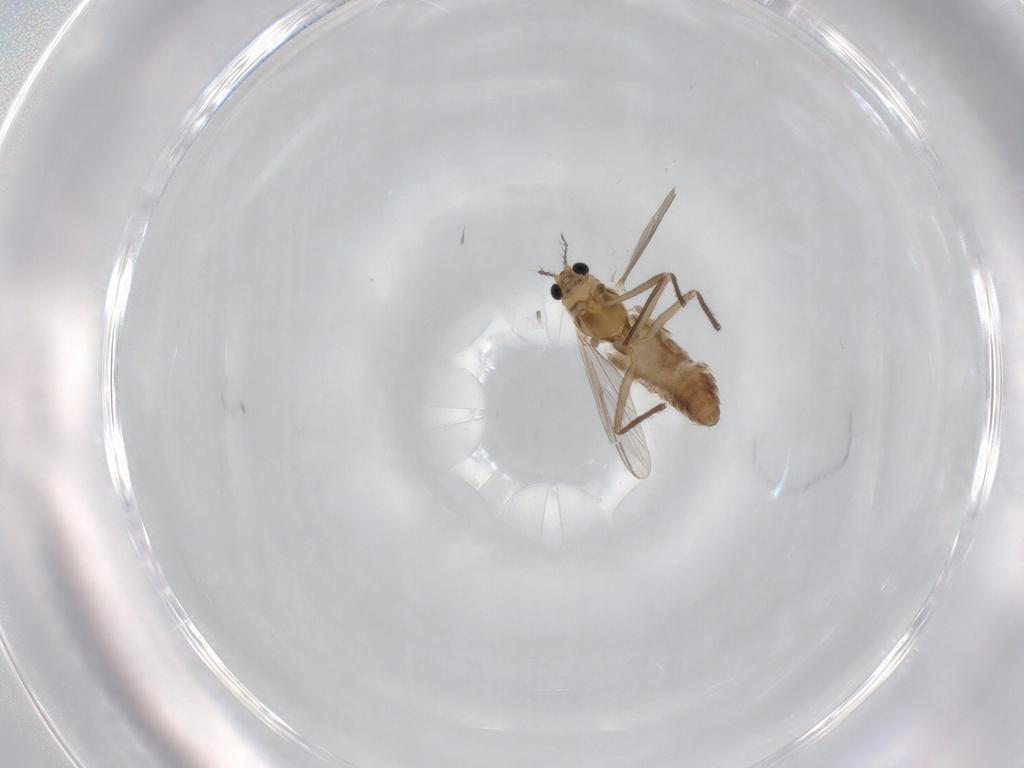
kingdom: Animalia
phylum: Arthropoda
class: Insecta
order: Diptera
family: Chironomidae
